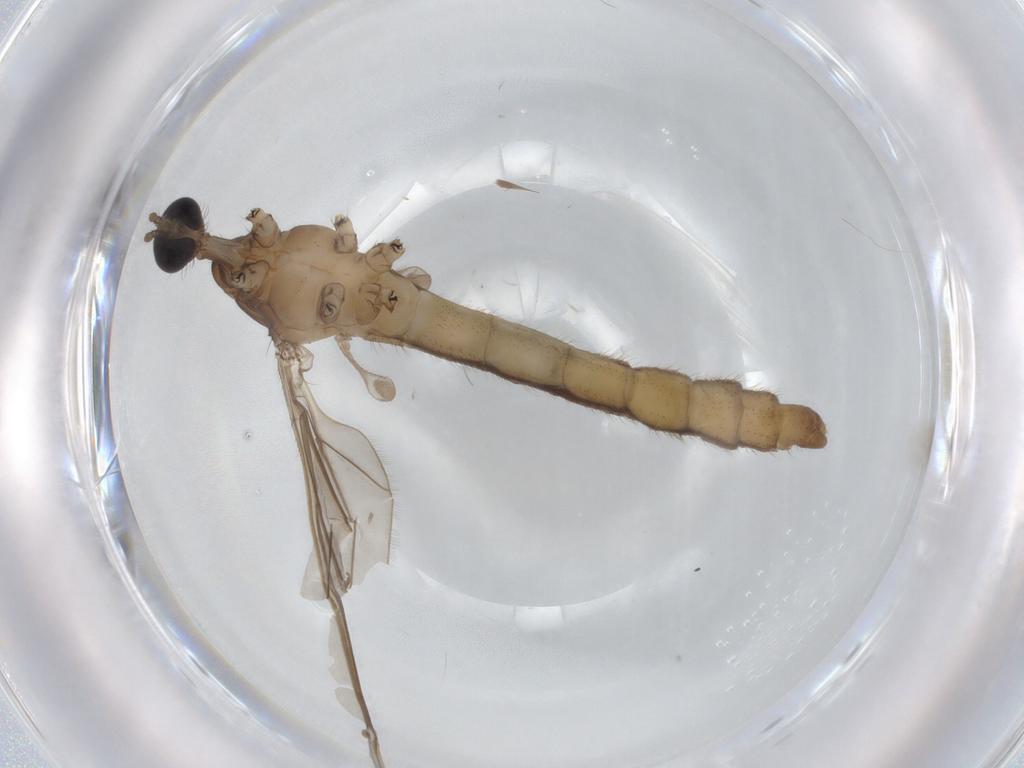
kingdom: Animalia
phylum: Arthropoda
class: Insecta
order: Diptera
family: Limoniidae
